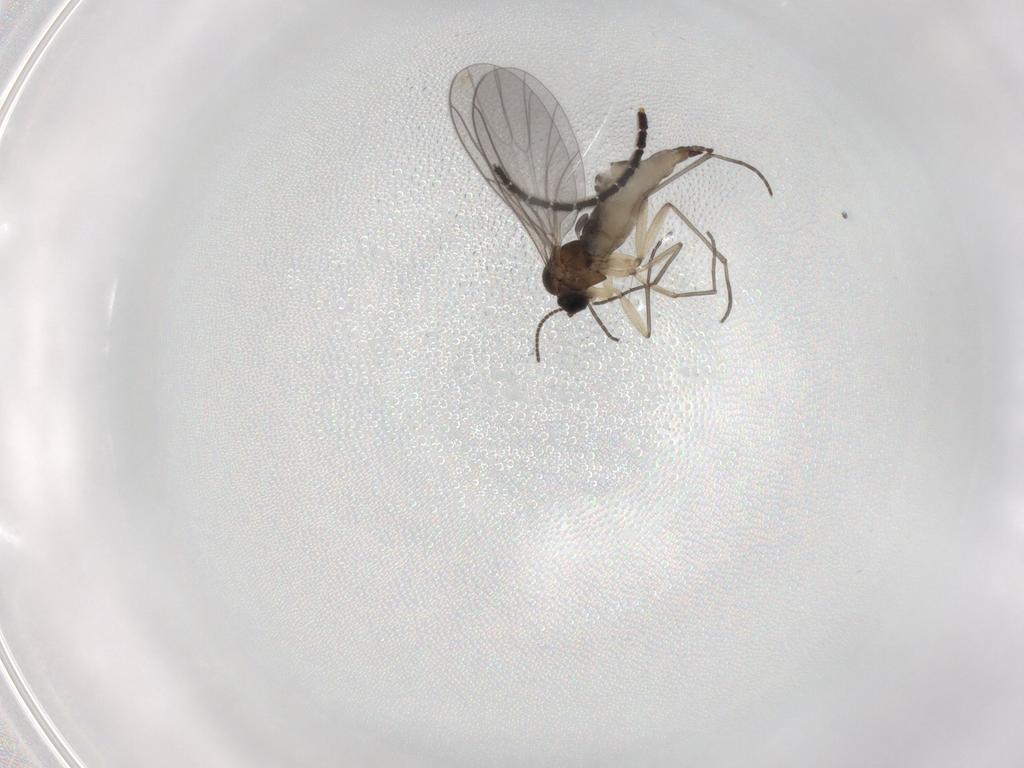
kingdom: Animalia
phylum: Arthropoda
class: Insecta
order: Diptera
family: Sciaridae
